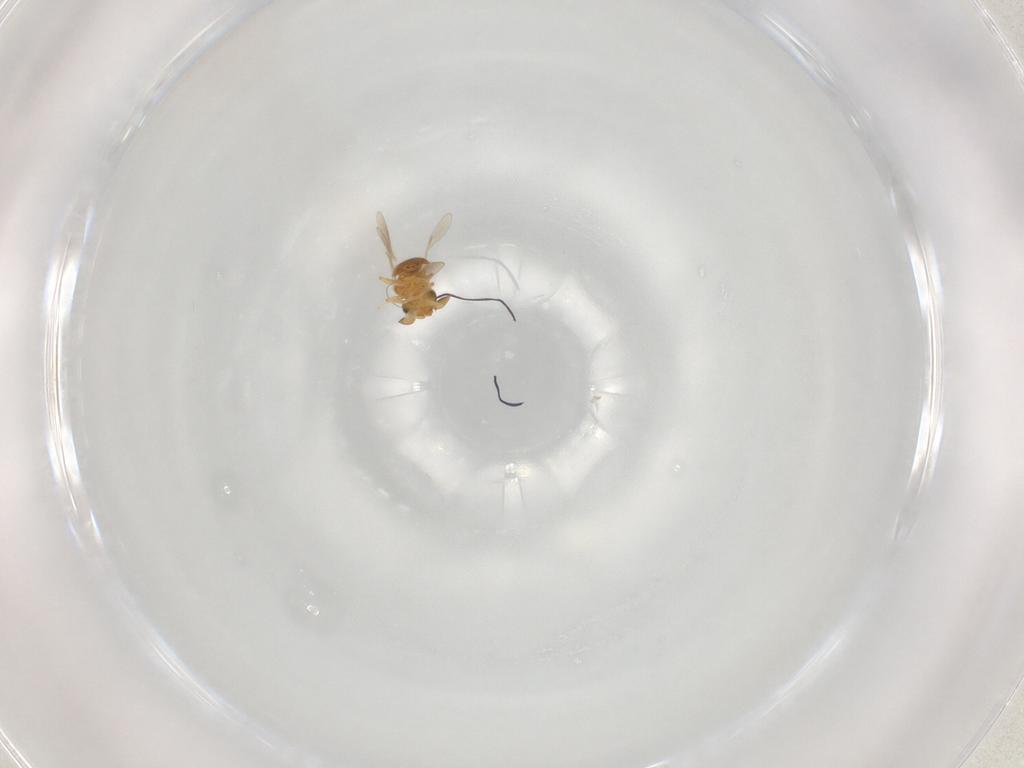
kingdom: Animalia
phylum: Arthropoda
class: Insecta
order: Hymenoptera
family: Scelionidae
